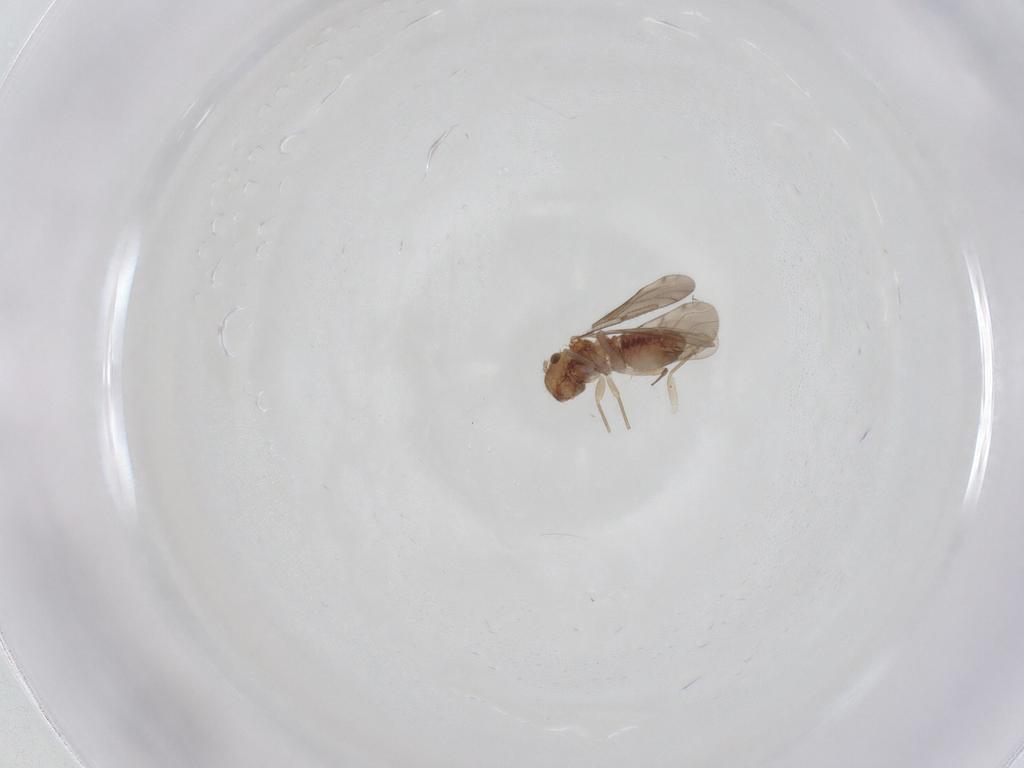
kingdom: Animalia
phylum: Arthropoda
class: Insecta
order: Psocodea
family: Ectopsocidae
